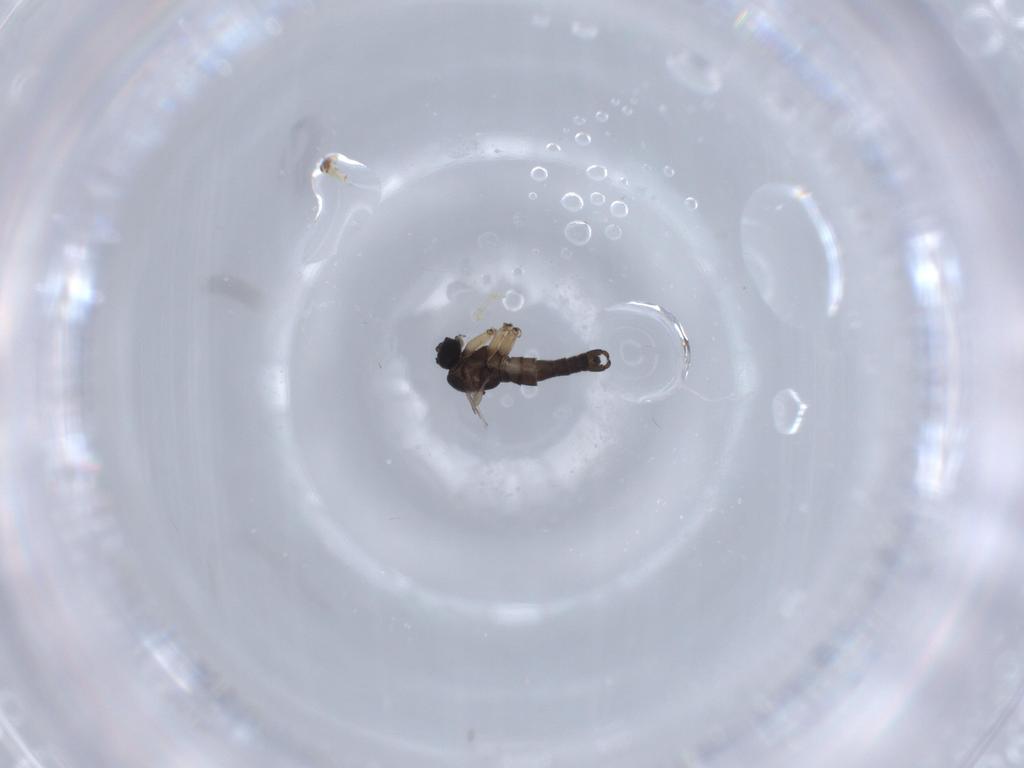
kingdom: Animalia
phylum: Arthropoda
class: Insecta
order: Diptera
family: Sciaridae
